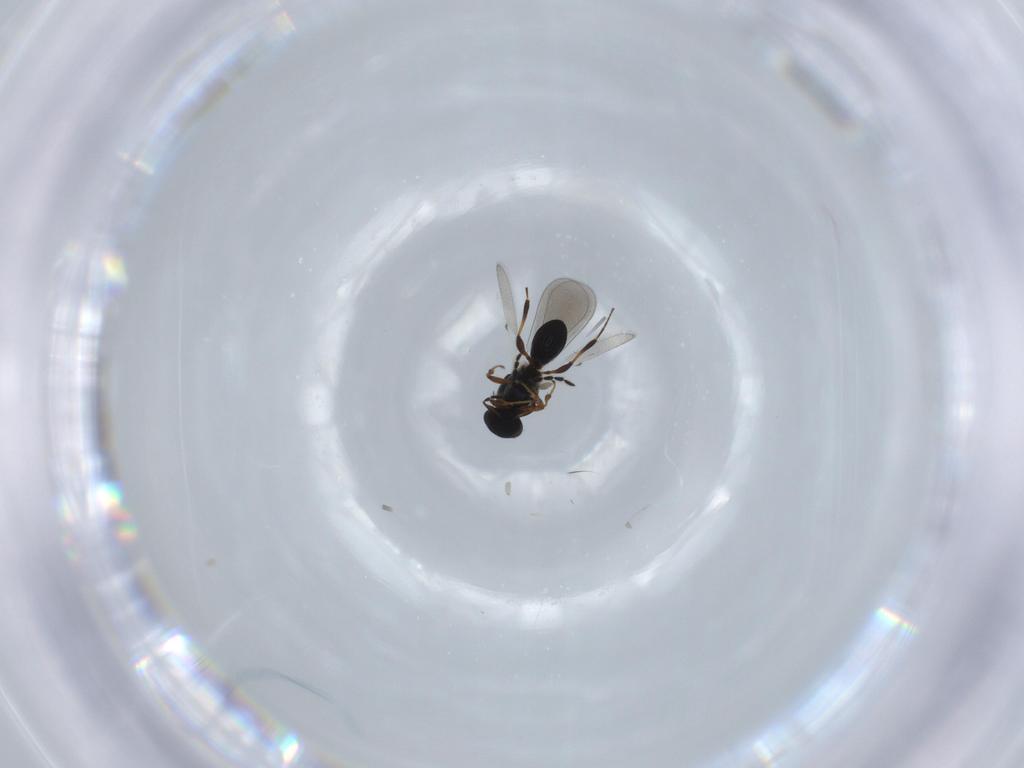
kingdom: Animalia
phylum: Arthropoda
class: Insecta
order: Hymenoptera
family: Platygastridae
